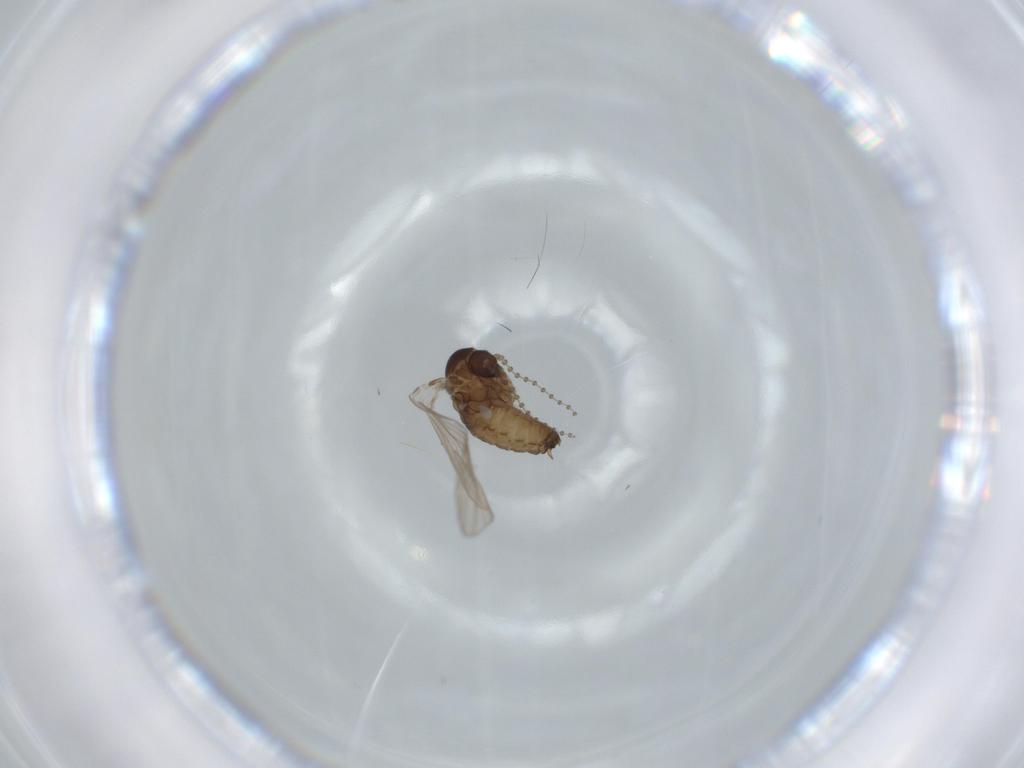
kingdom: Animalia
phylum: Arthropoda
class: Insecta
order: Diptera
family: Psychodidae
